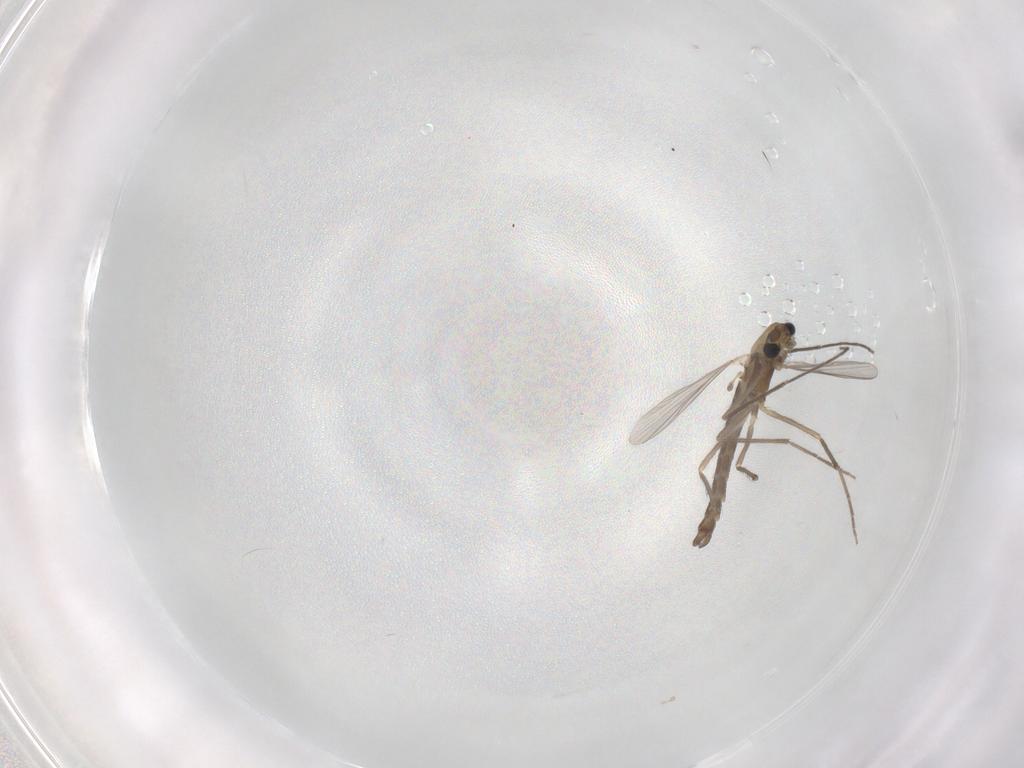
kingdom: Animalia
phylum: Arthropoda
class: Insecta
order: Diptera
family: Chironomidae
